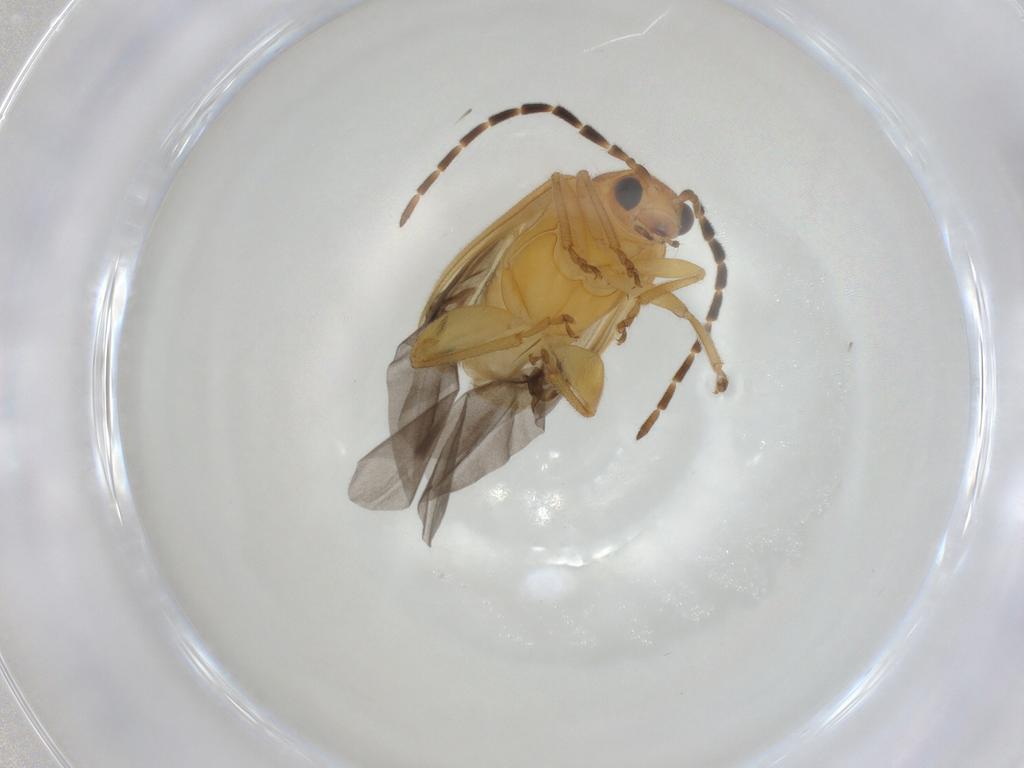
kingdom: Animalia
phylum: Arthropoda
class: Insecta
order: Coleoptera
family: Chrysomelidae
